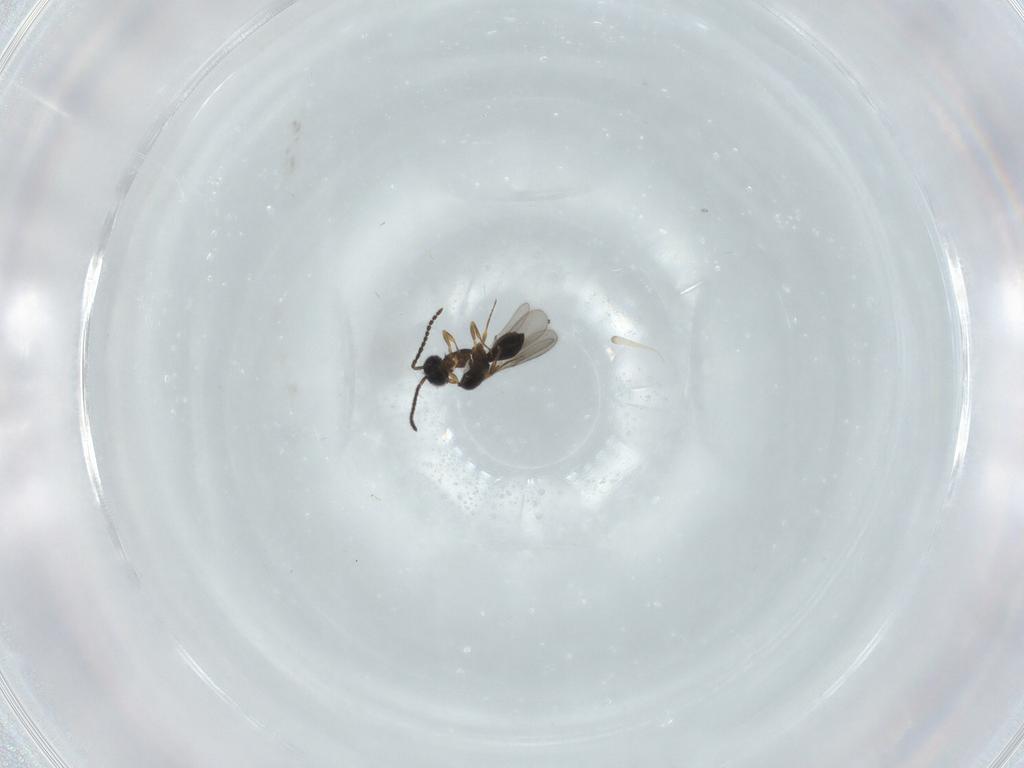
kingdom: Animalia
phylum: Arthropoda
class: Insecta
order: Hymenoptera
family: Scelionidae
